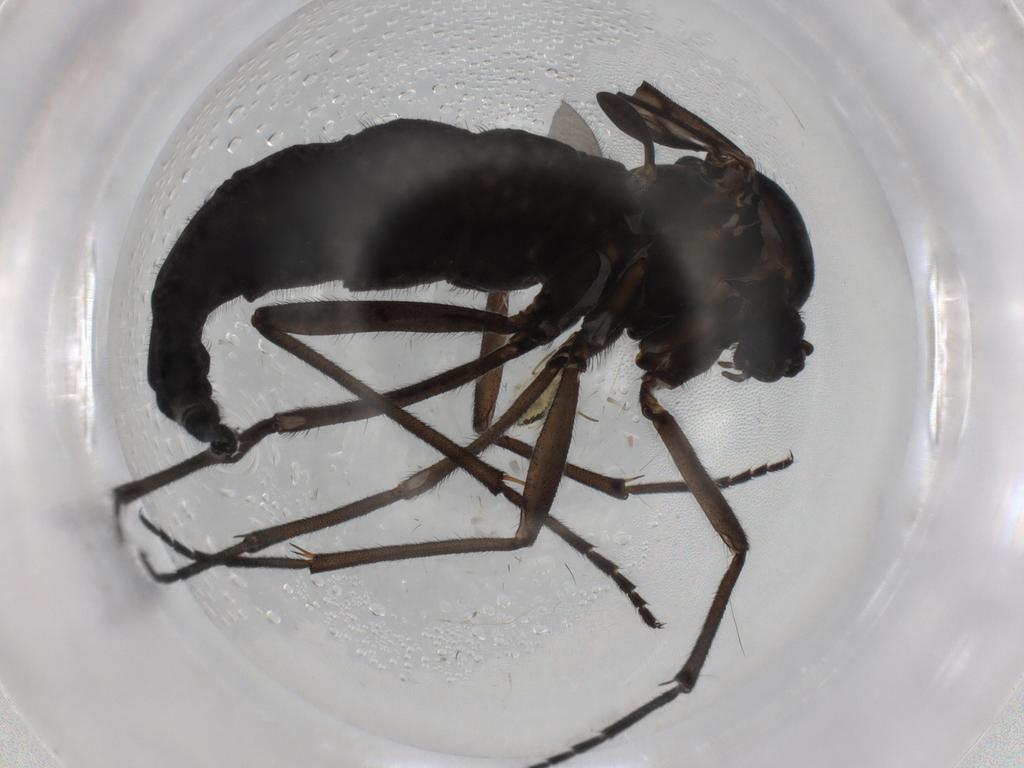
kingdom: Animalia
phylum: Arthropoda
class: Insecta
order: Diptera
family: Sciaridae
